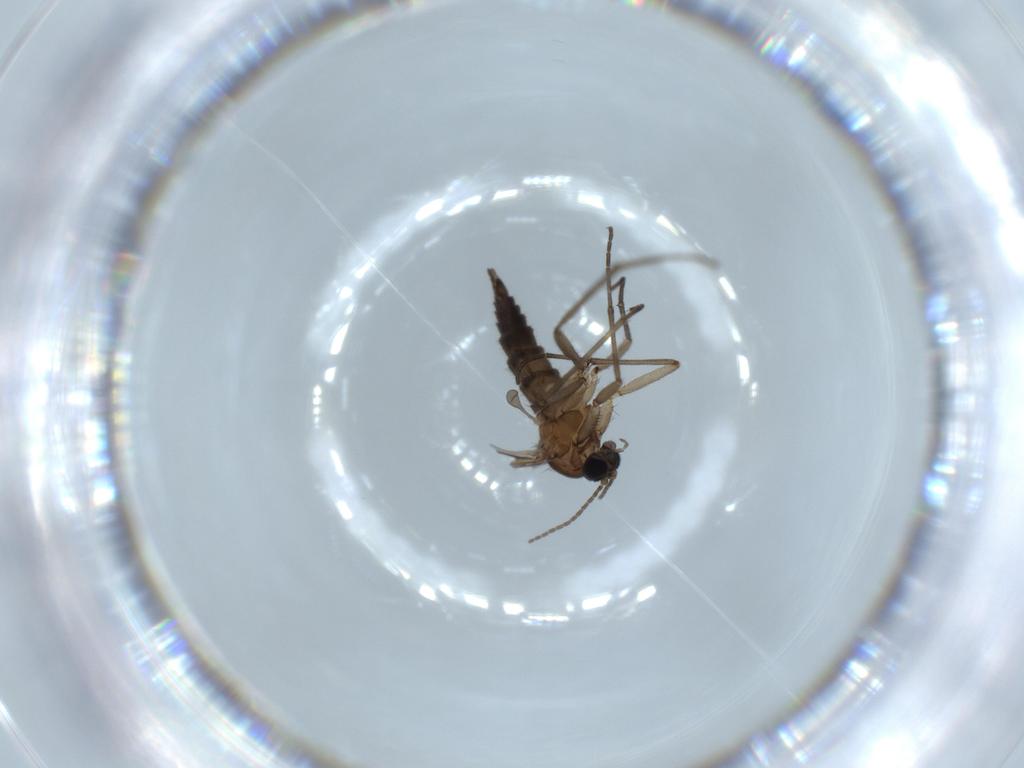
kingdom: Animalia
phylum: Arthropoda
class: Insecta
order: Diptera
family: Sciaridae
